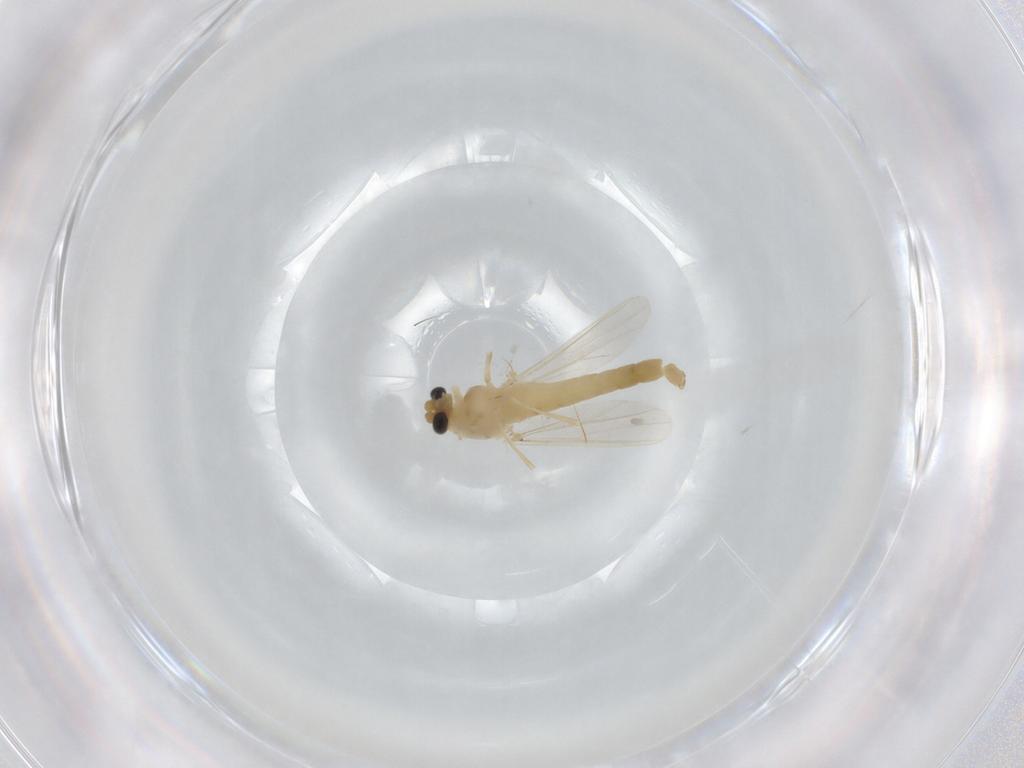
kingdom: Animalia
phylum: Arthropoda
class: Insecta
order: Diptera
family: Chironomidae
